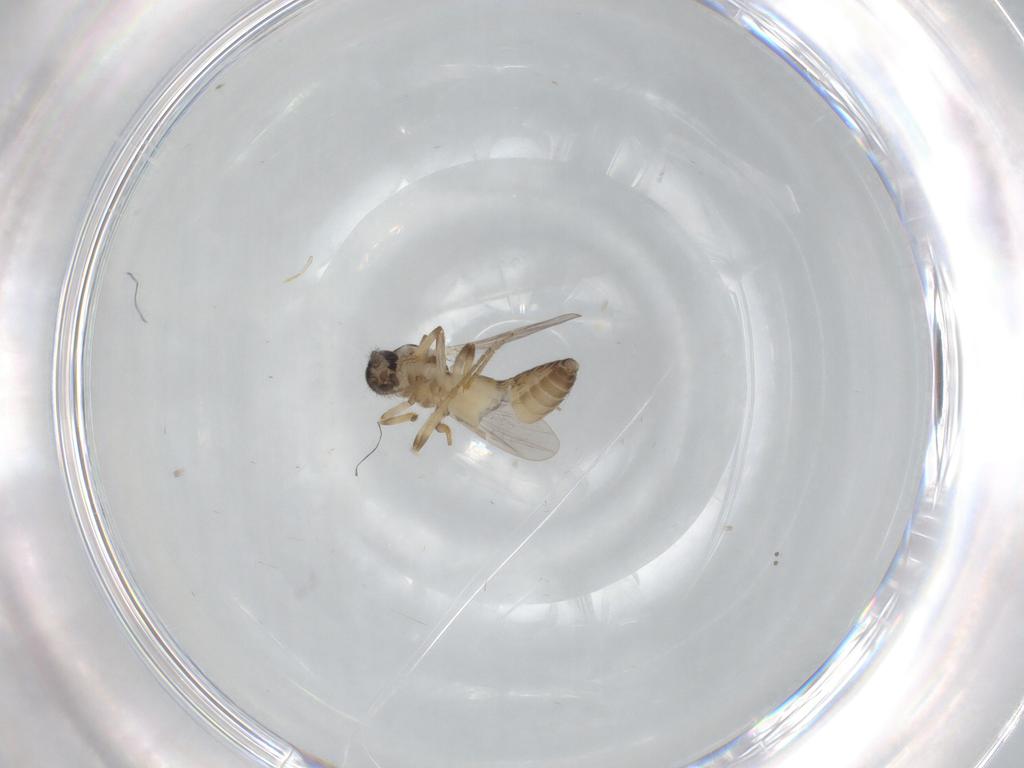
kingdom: Animalia
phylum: Arthropoda
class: Insecta
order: Diptera
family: Ceratopogonidae
